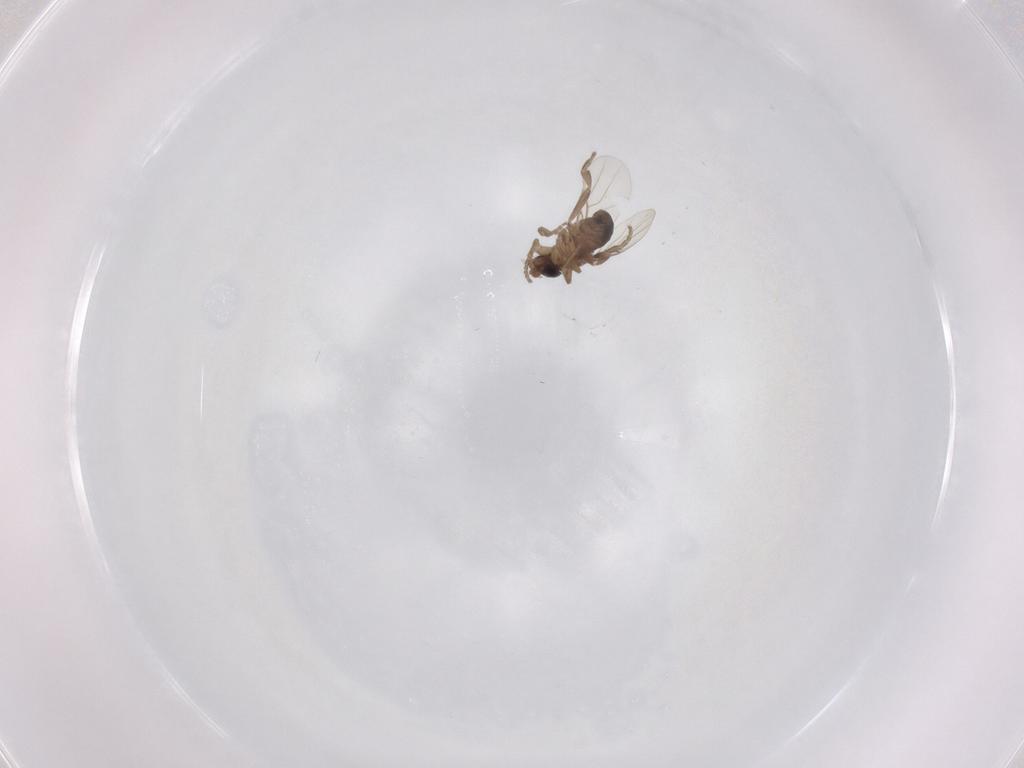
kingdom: Animalia
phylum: Arthropoda
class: Insecta
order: Diptera
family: Phoridae
